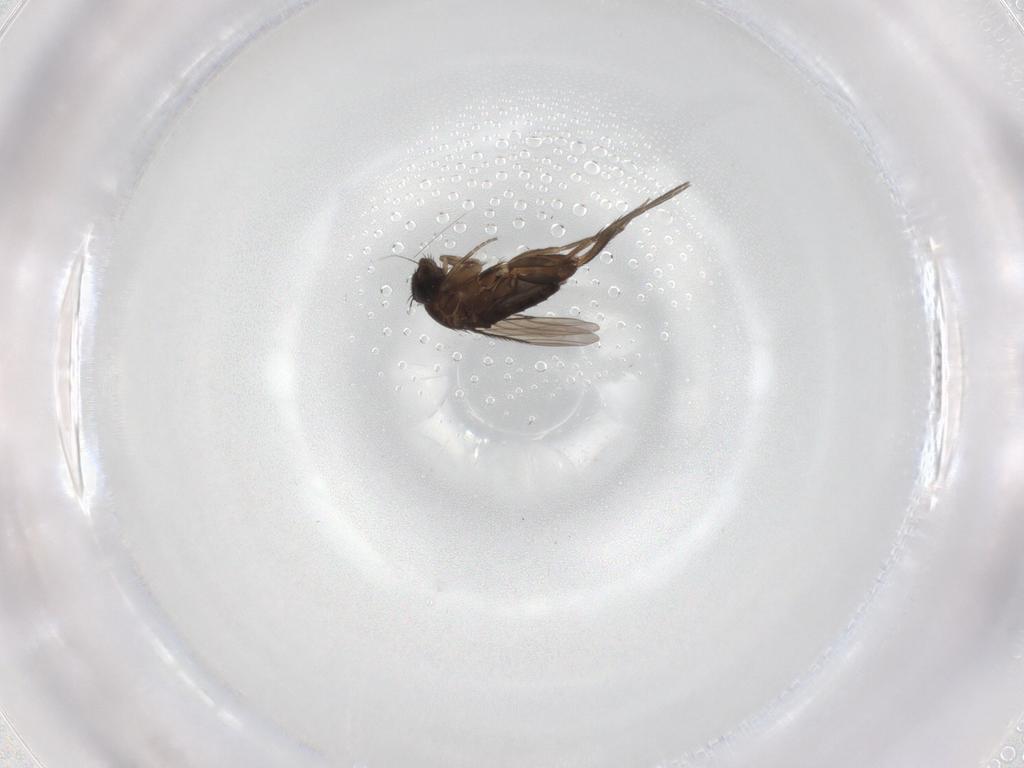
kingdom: Animalia
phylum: Arthropoda
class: Insecta
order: Diptera
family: Phoridae
